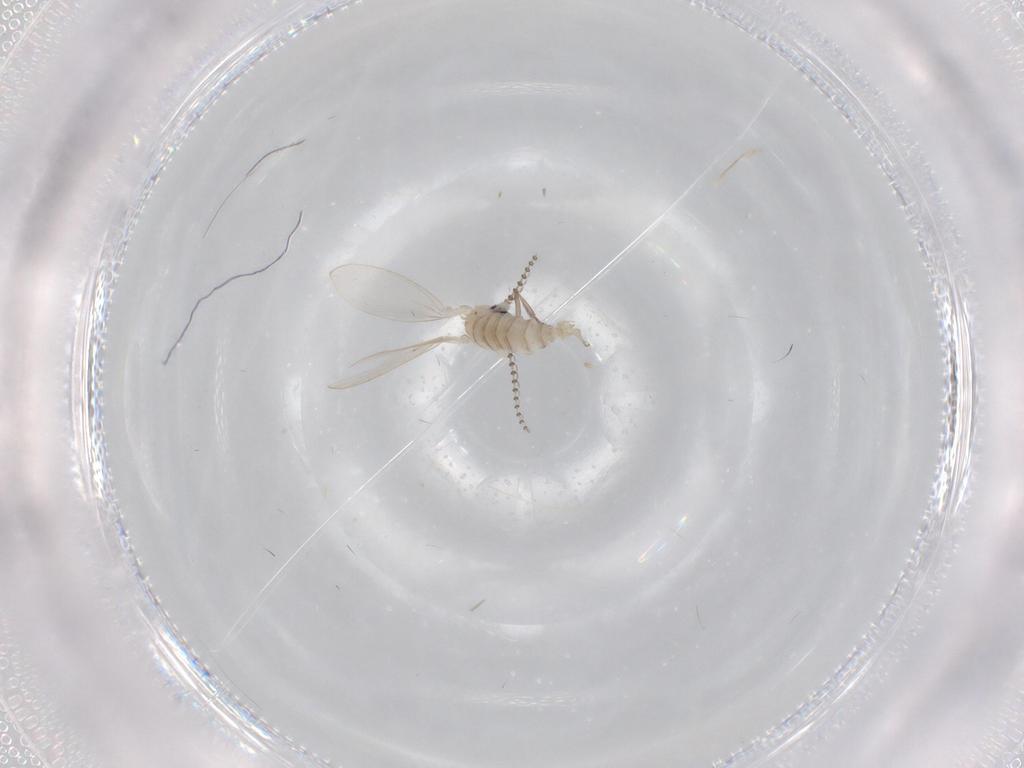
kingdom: Animalia
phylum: Arthropoda
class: Insecta
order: Diptera
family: Psychodidae
